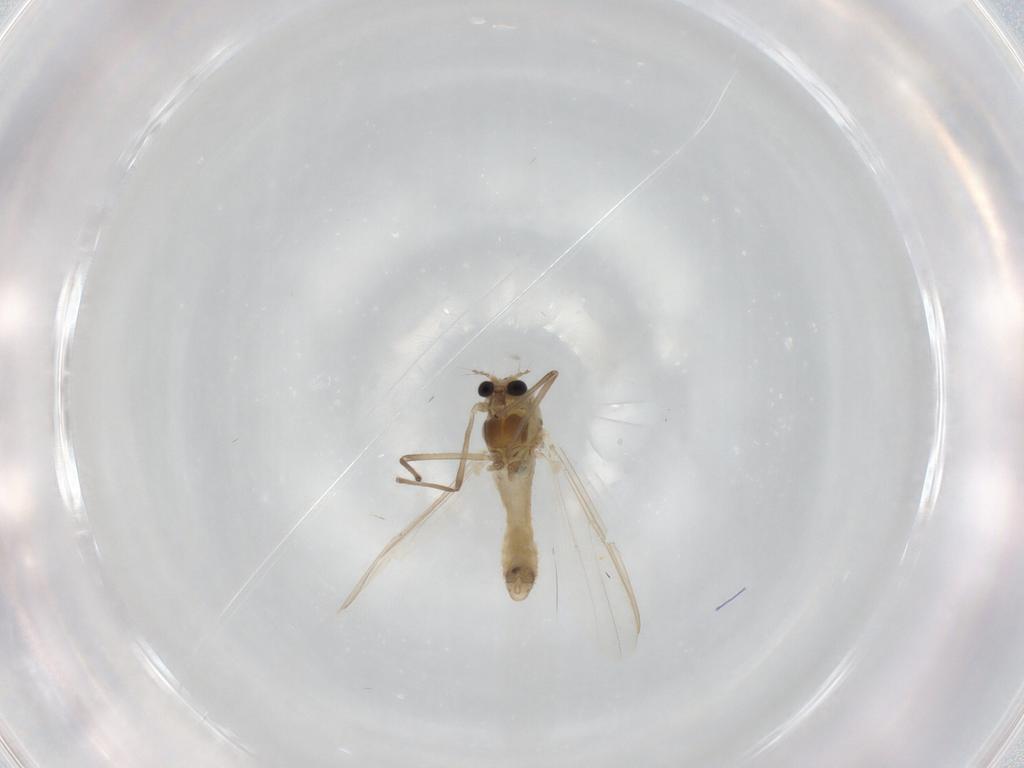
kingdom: Animalia
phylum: Arthropoda
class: Insecta
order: Diptera
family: Chironomidae
